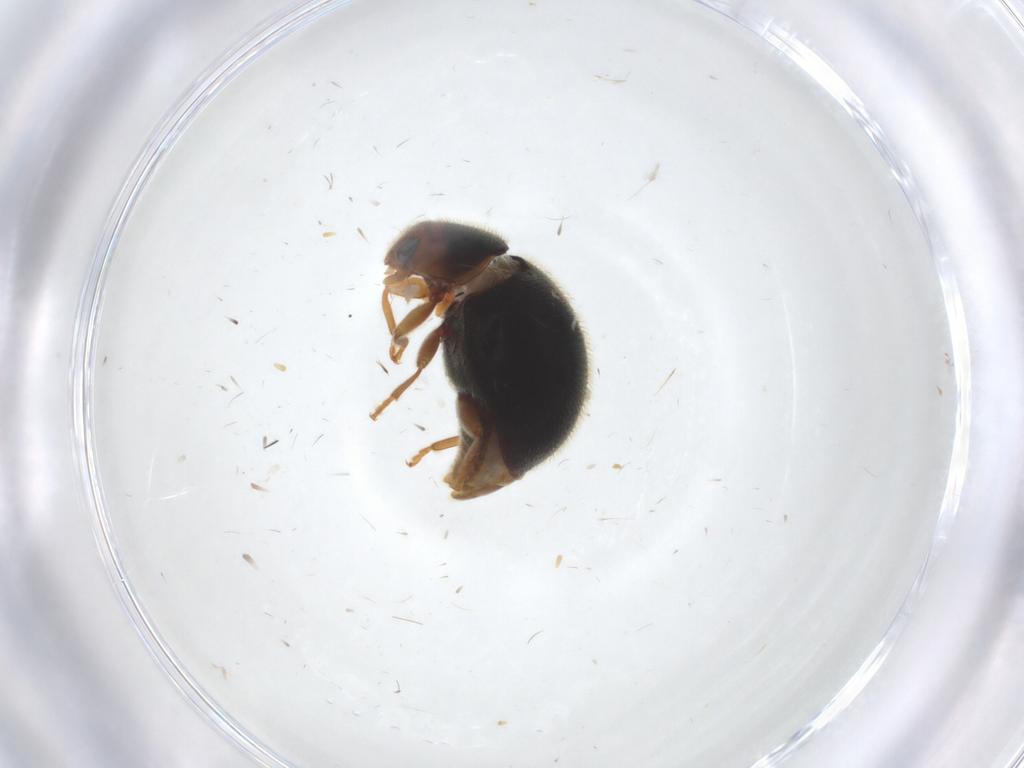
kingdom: Animalia
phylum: Arthropoda
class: Insecta
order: Coleoptera
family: Coccinellidae
